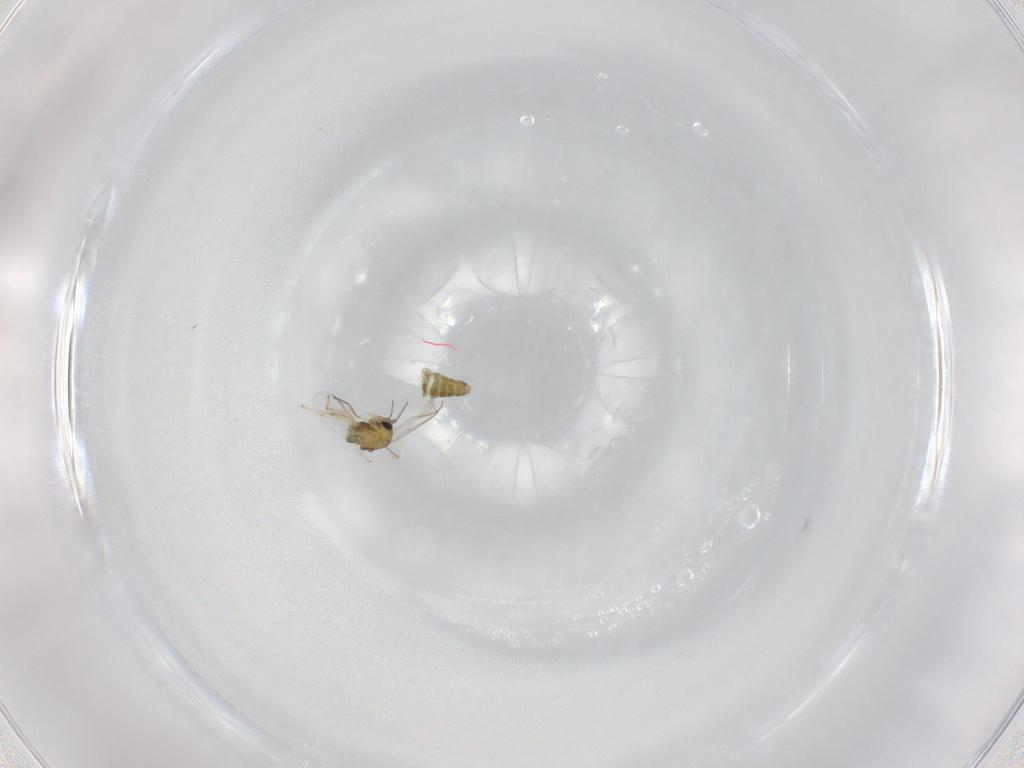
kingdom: Animalia
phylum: Arthropoda
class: Insecta
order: Diptera
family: Chironomidae
